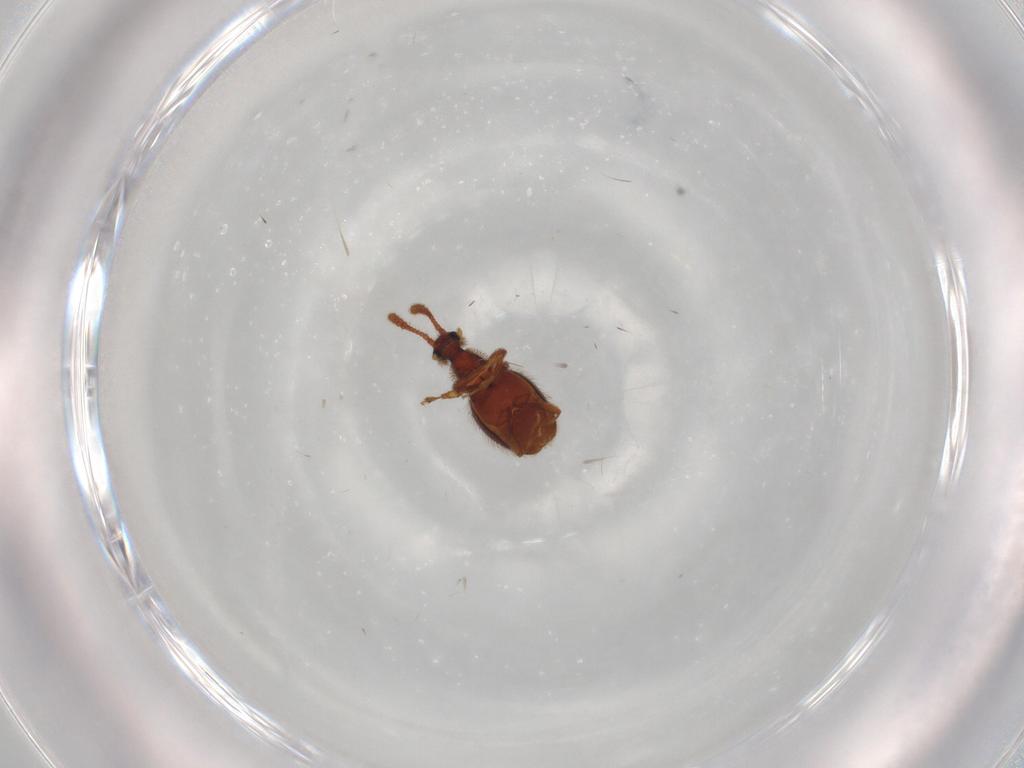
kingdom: Animalia
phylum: Arthropoda
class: Insecta
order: Coleoptera
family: Staphylinidae
